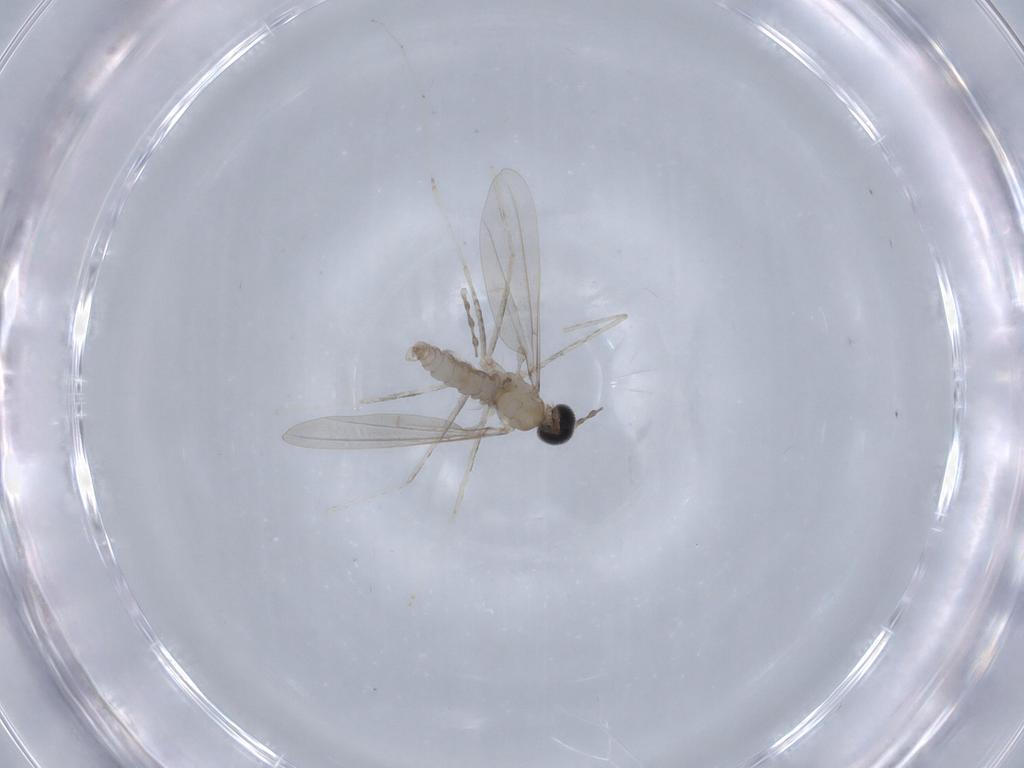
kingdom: Animalia
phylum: Arthropoda
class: Insecta
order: Diptera
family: Cecidomyiidae
